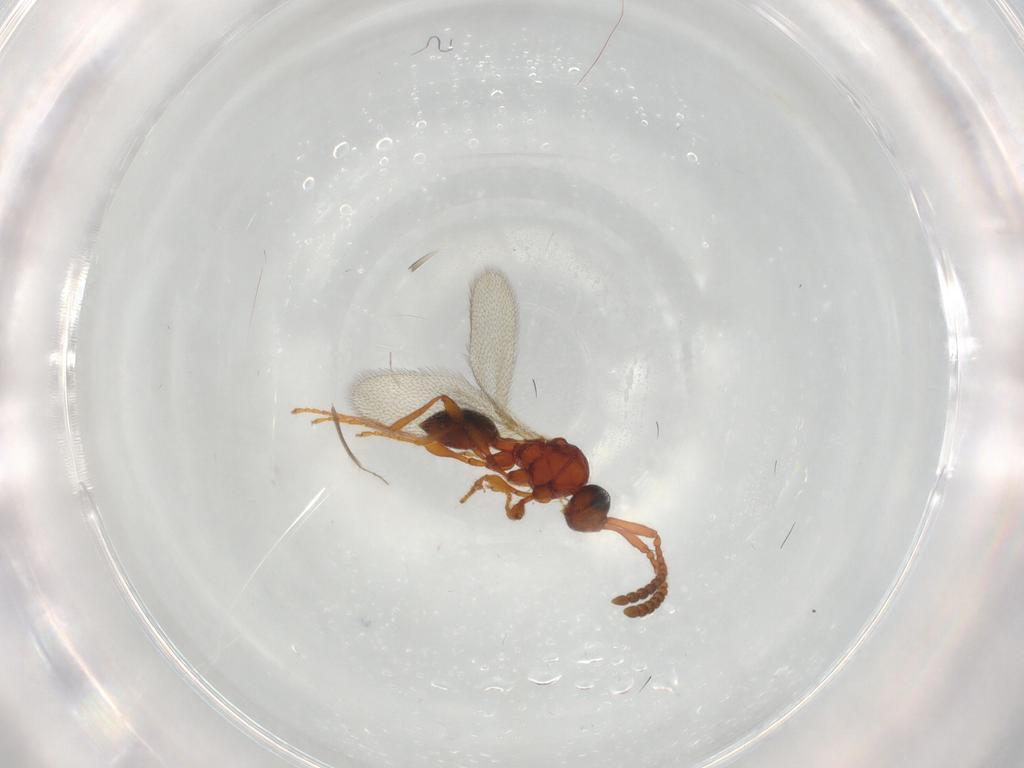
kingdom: Animalia
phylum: Arthropoda
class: Insecta
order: Hymenoptera
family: Diapriidae
